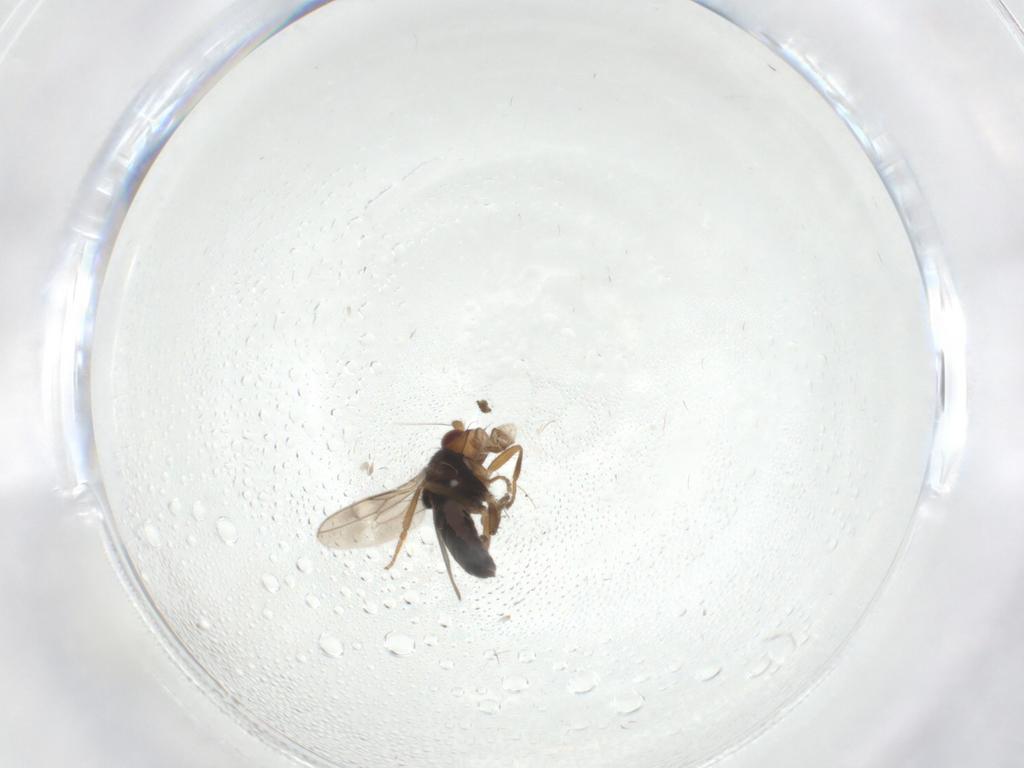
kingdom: Animalia
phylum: Arthropoda
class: Insecta
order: Diptera
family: Sphaeroceridae
